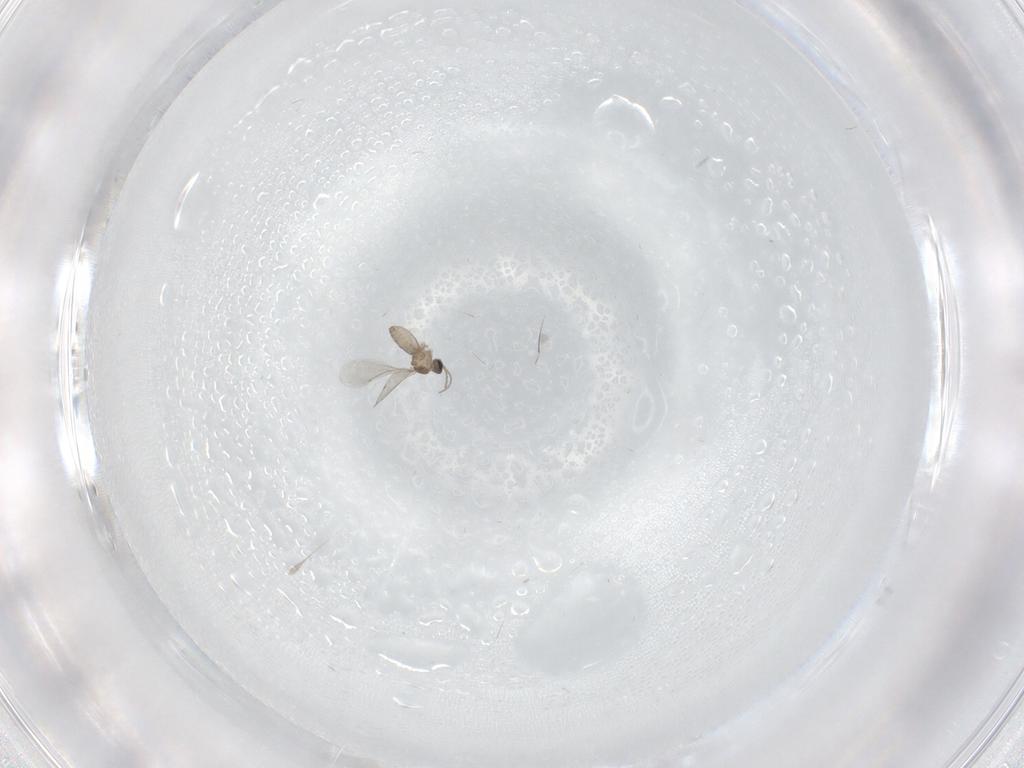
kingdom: Animalia
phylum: Arthropoda
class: Insecta
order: Diptera
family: Cecidomyiidae
